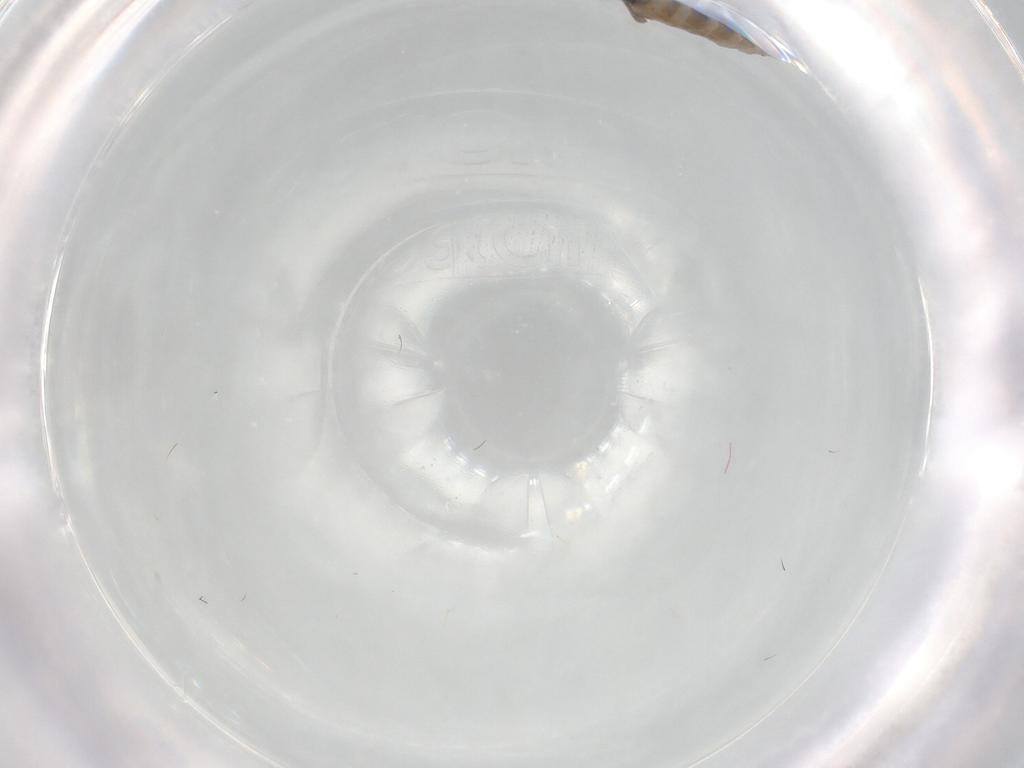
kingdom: Animalia
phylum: Arthropoda
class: Insecta
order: Diptera
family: Sciaridae
